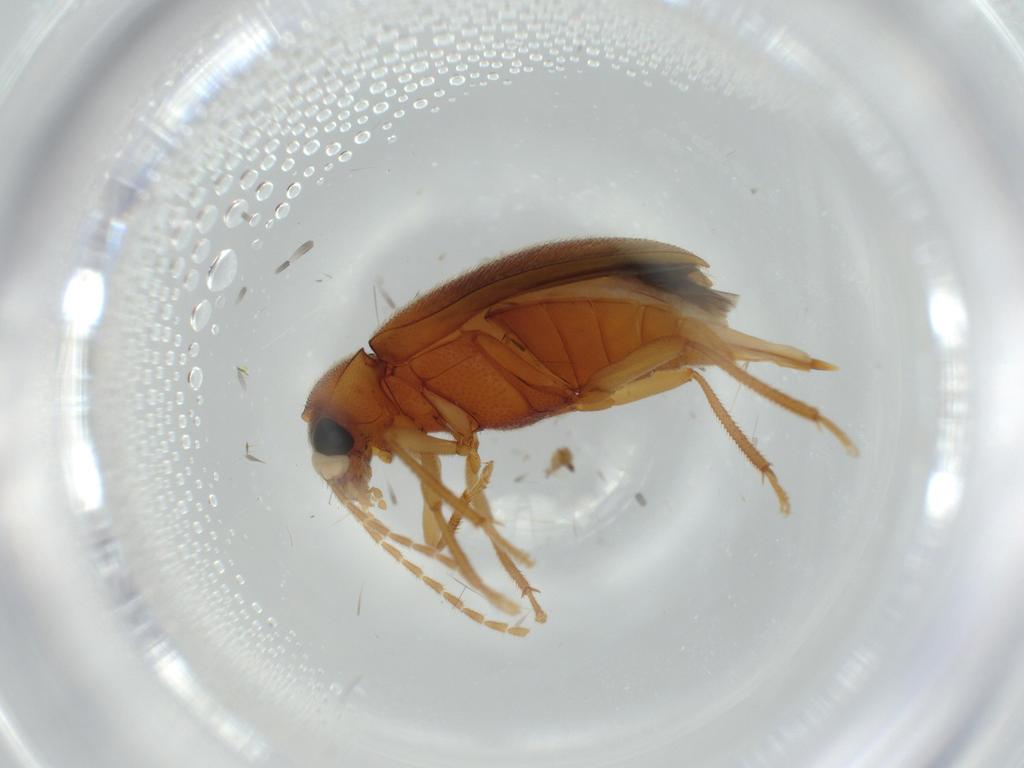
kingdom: Animalia
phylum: Arthropoda
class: Insecta
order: Coleoptera
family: Ptilodactylidae
